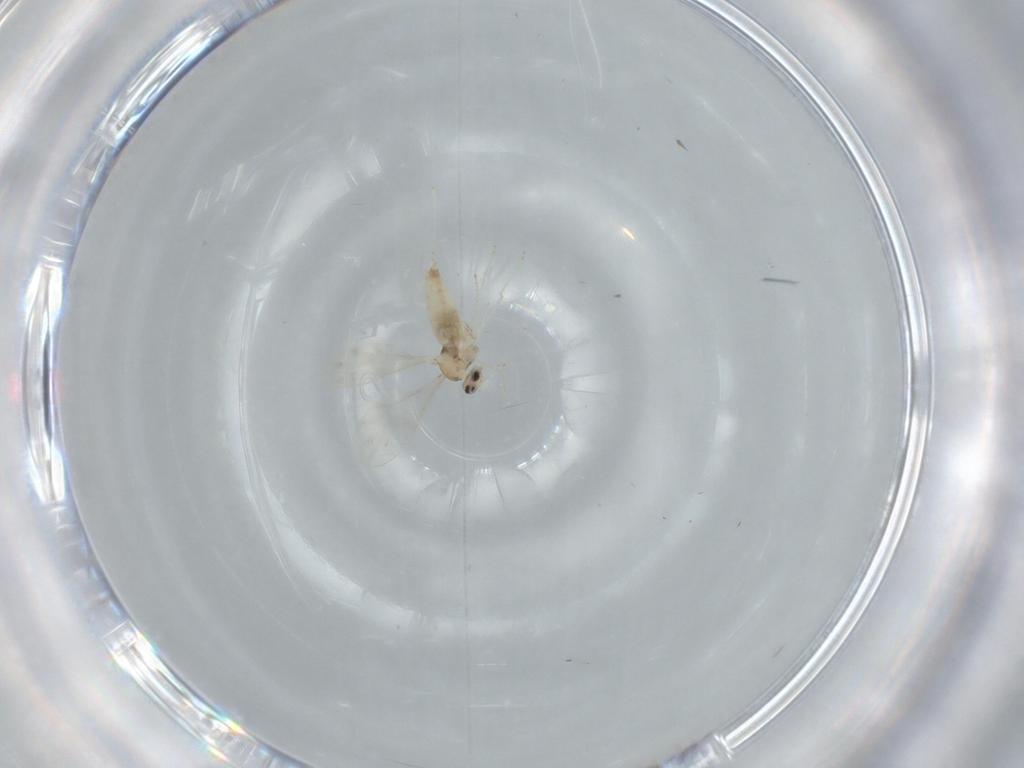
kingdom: Animalia
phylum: Arthropoda
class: Insecta
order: Diptera
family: Cecidomyiidae
